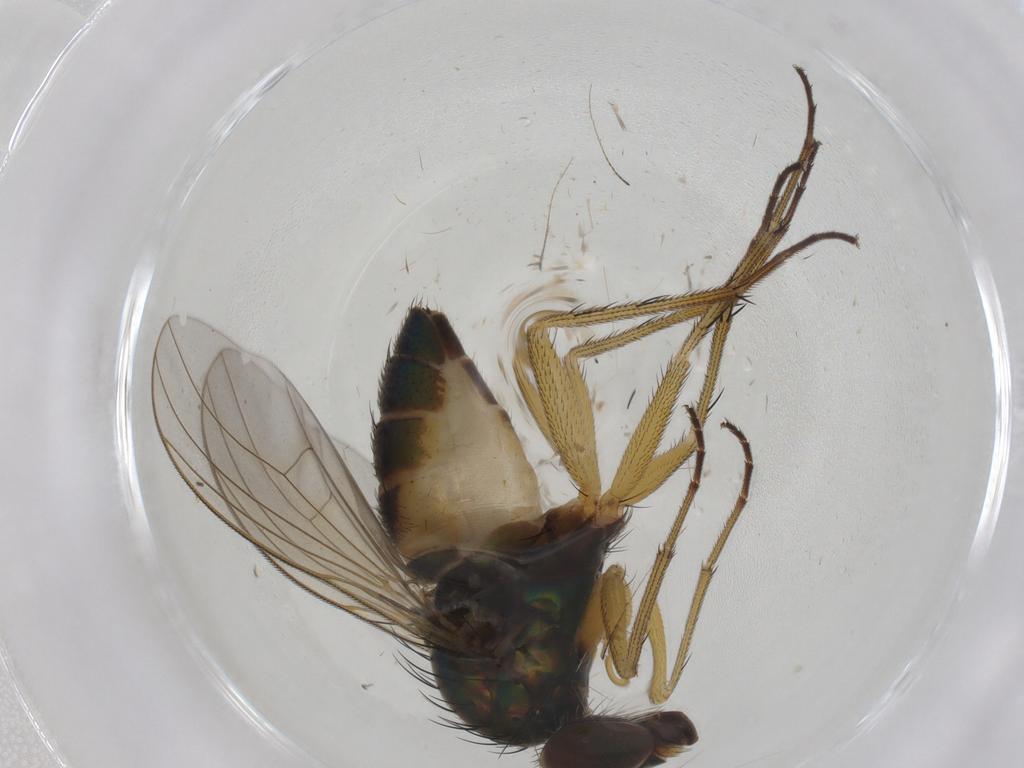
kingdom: Animalia
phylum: Arthropoda
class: Insecta
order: Diptera
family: Dolichopodidae
